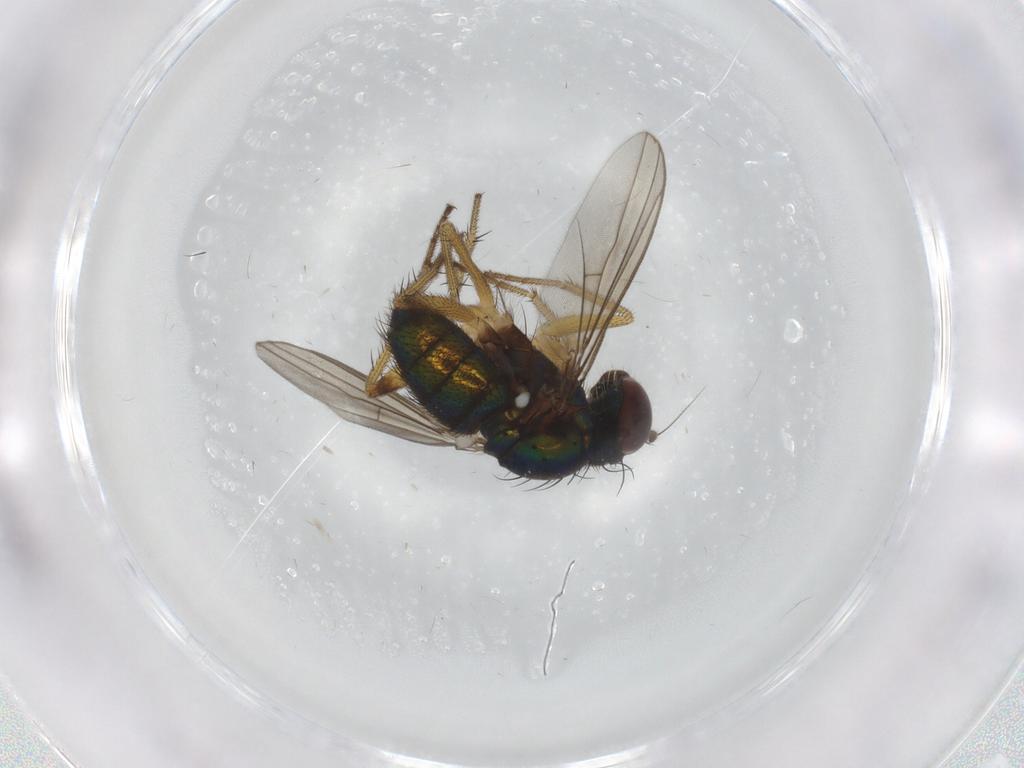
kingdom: Animalia
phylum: Arthropoda
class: Insecta
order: Diptera
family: Dolichopodidae
